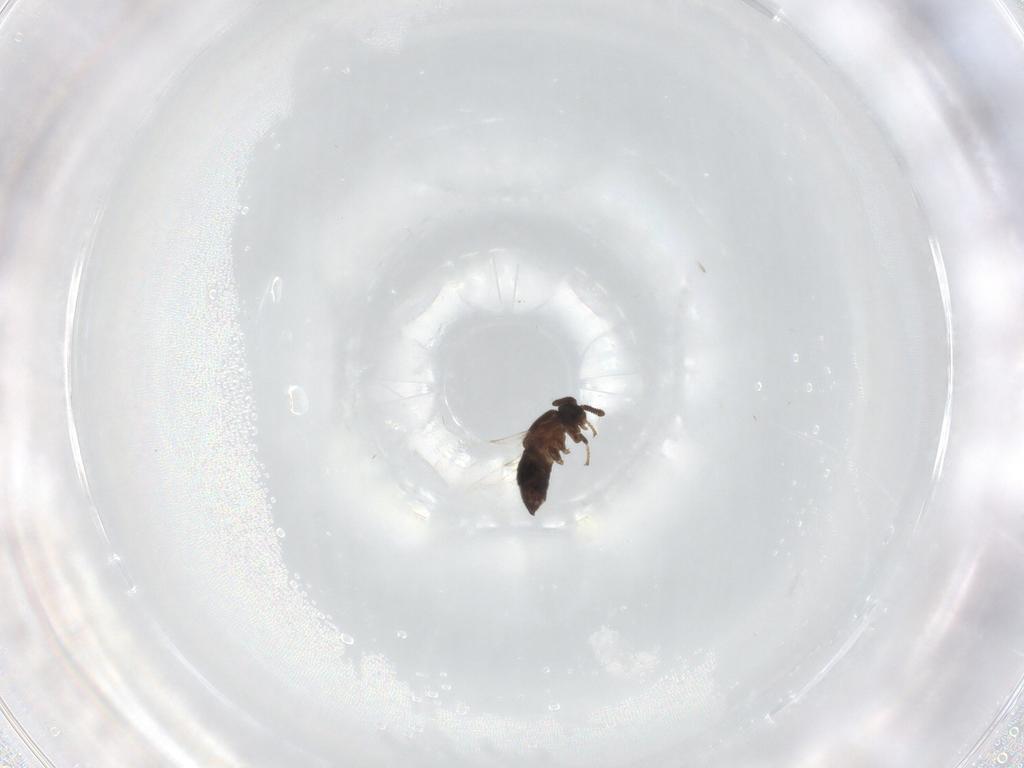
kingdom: Animalia
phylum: Arthropoda
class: Insecta
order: Diptera
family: Scatopsidae
